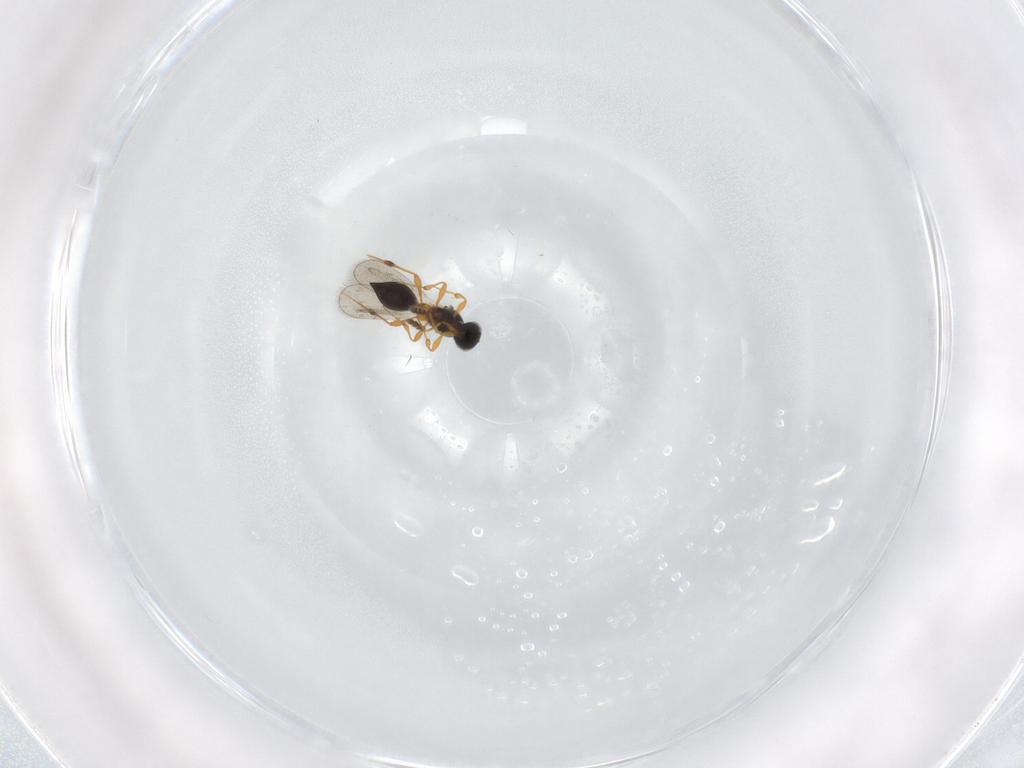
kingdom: Animalia
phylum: Arthropoda
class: Insecta
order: Hymenoptera
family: Platygastridae
